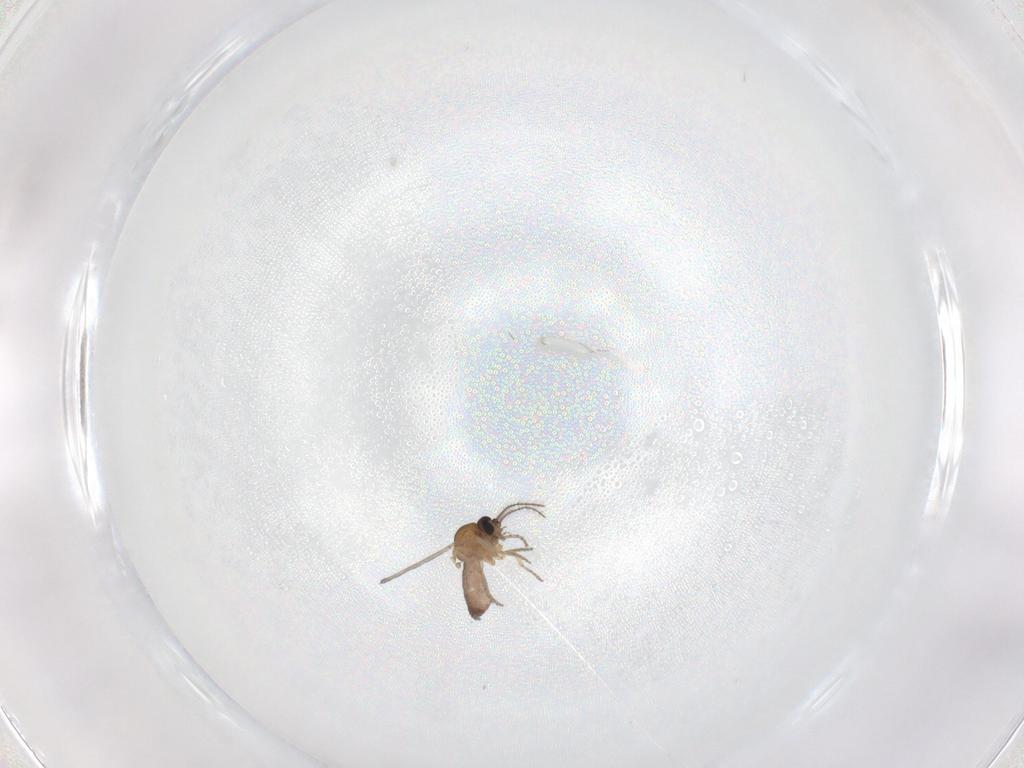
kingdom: Animalia
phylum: Arthropoda
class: Insecta
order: Diptera
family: Ceratopogonidae
